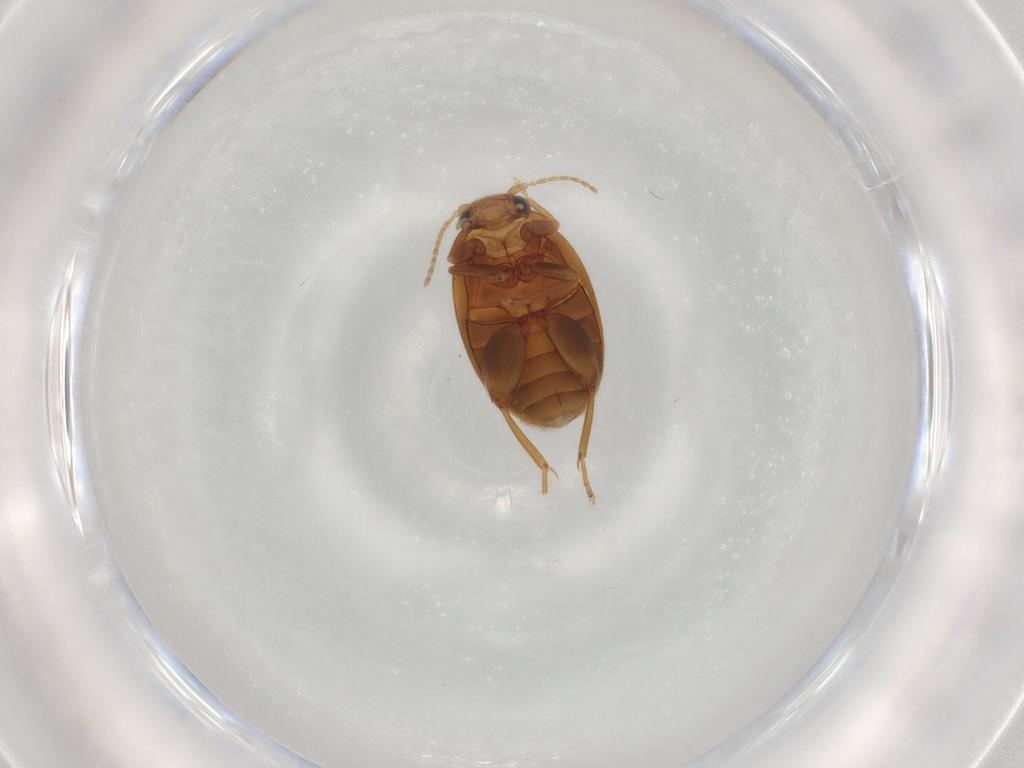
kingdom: Animalia
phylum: Arthropoda
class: Insecta
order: Coleoptera
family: Scirtidae
